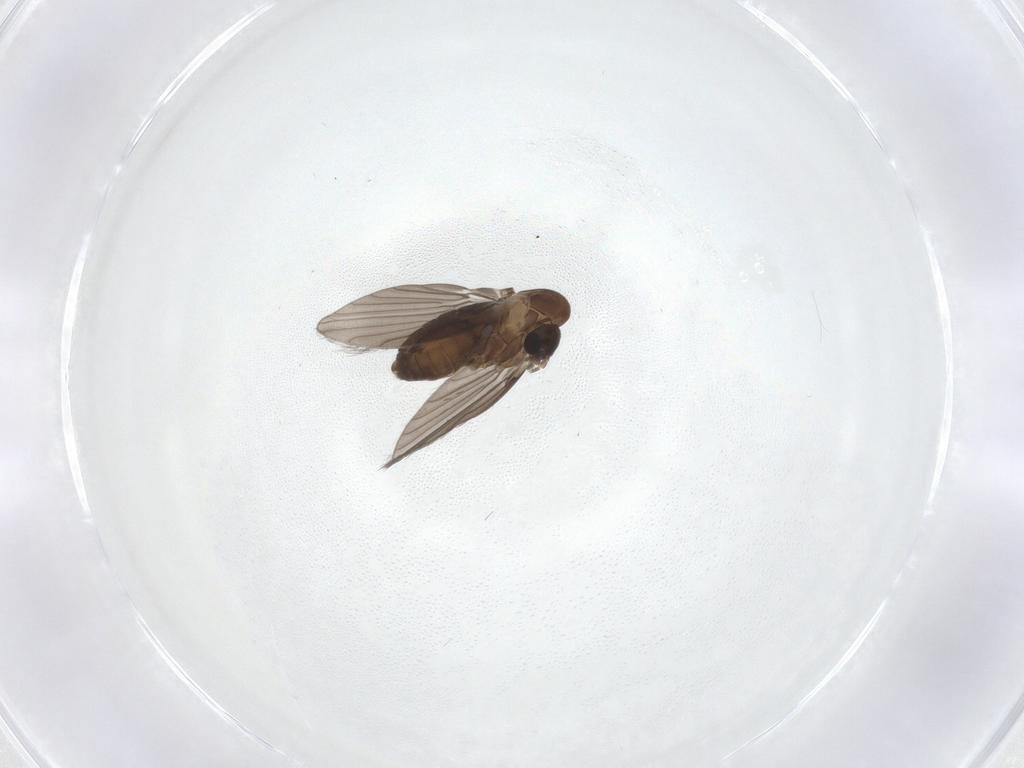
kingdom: Animalia
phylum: Arthropoda
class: Insecta
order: Diptera
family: Psychodidae
